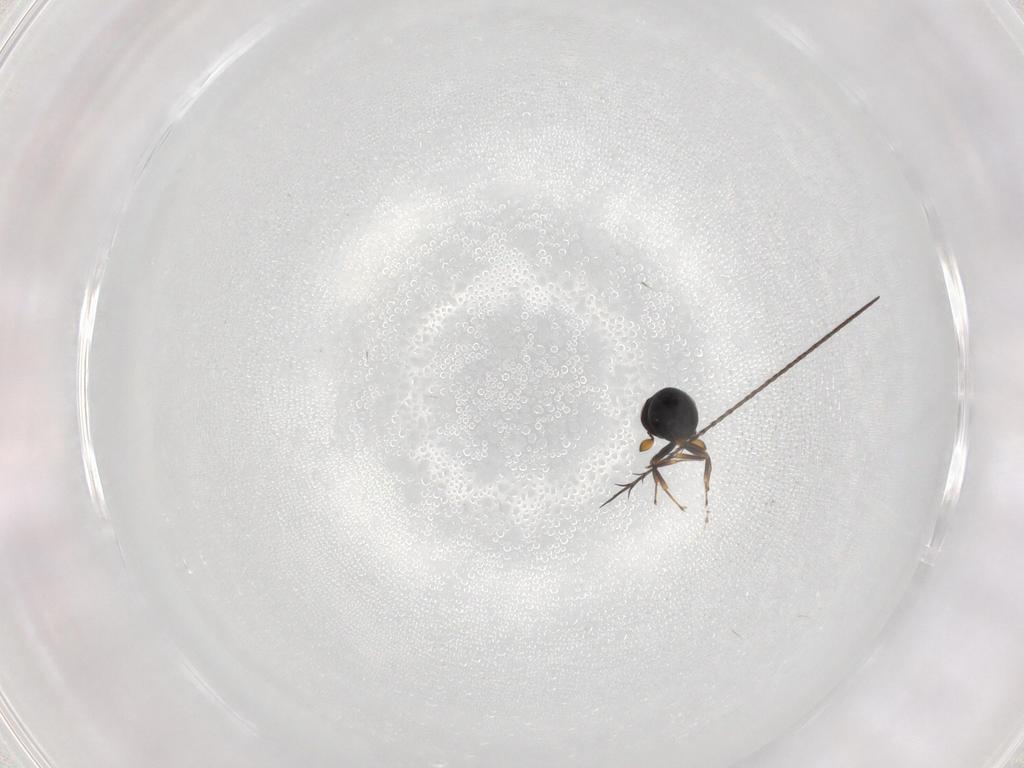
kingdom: Animalia
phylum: Arthropoda
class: Insecta
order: Hymenoptera
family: Scelionidae
